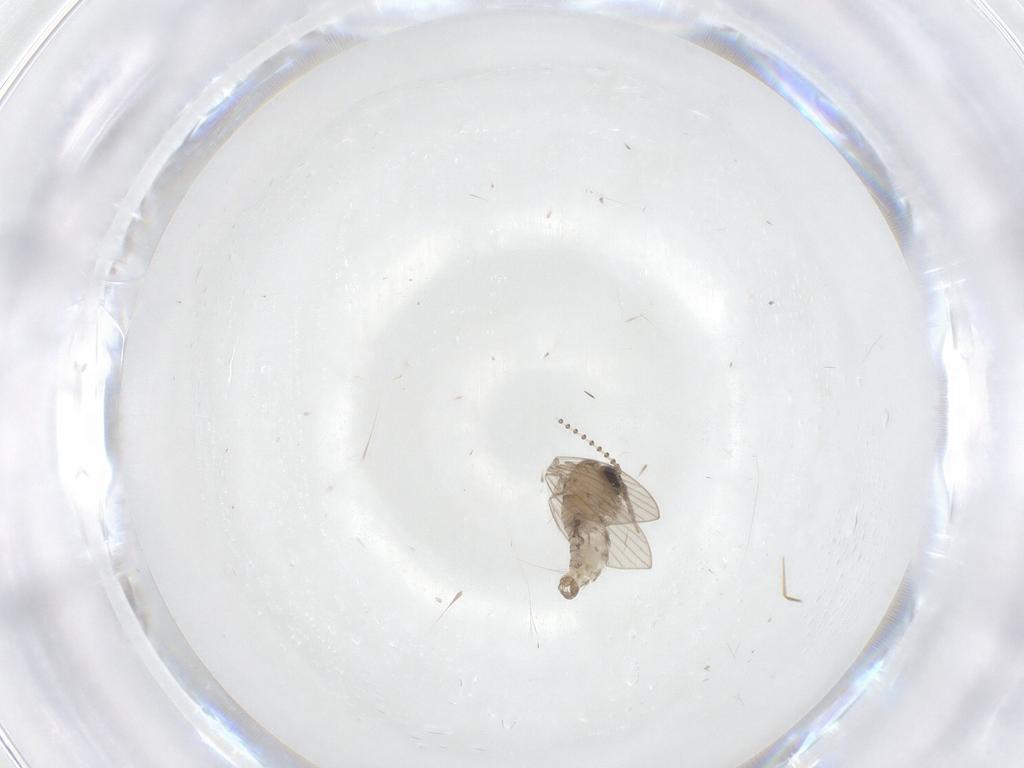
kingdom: Animalia
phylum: Arthropoda
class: Insecta
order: Diptera
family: Psychodidae
